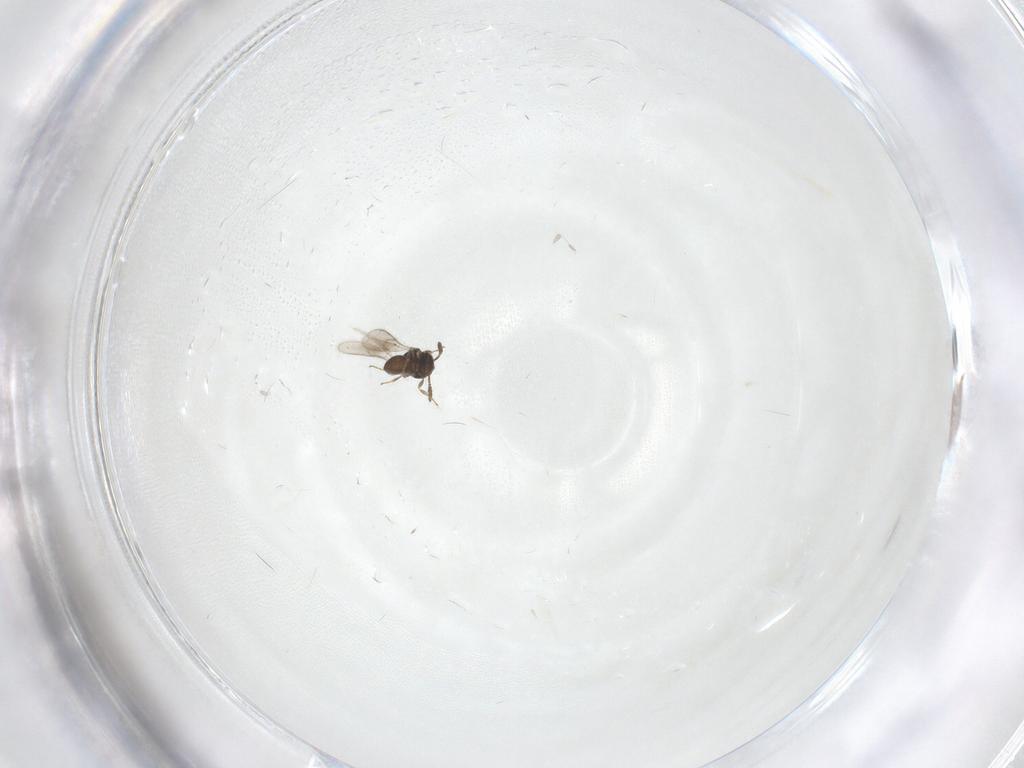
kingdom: Animalia
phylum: Arthropoda
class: Insecta
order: Hymenoptera
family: Scelionidae
